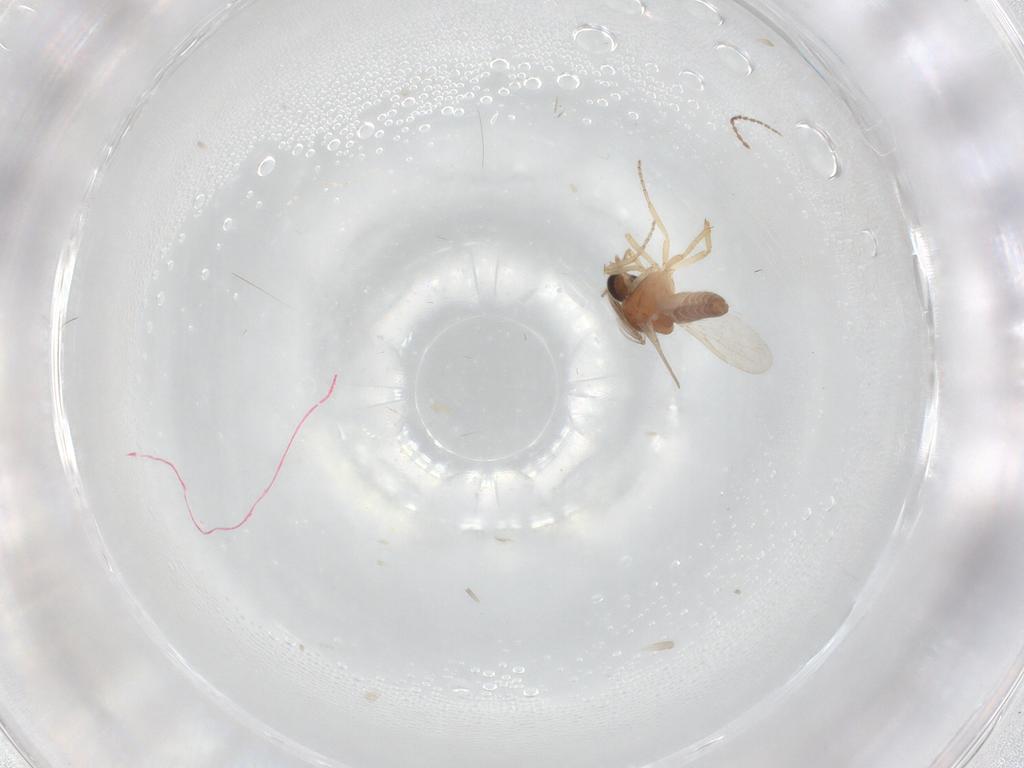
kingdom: Animalia
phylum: Arthropoda
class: Insecta
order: Diptera
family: Ceratopogonidae
